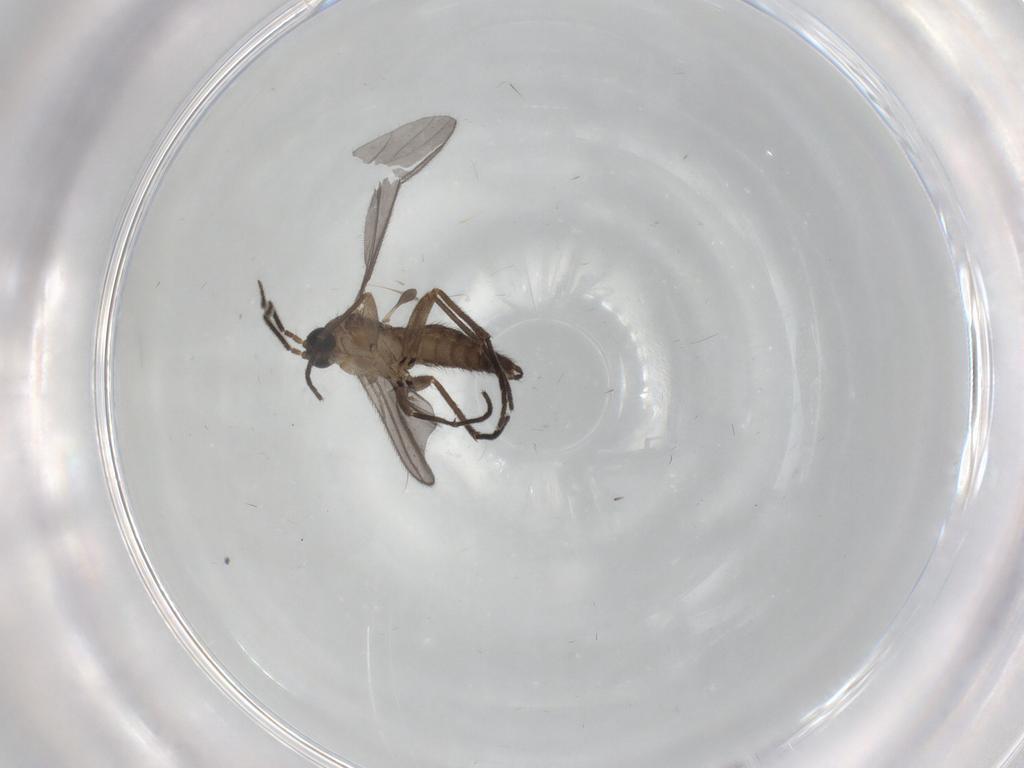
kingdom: Animalia
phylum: Arthropoda
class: Insecta
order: Diptera
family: Sciaridae
